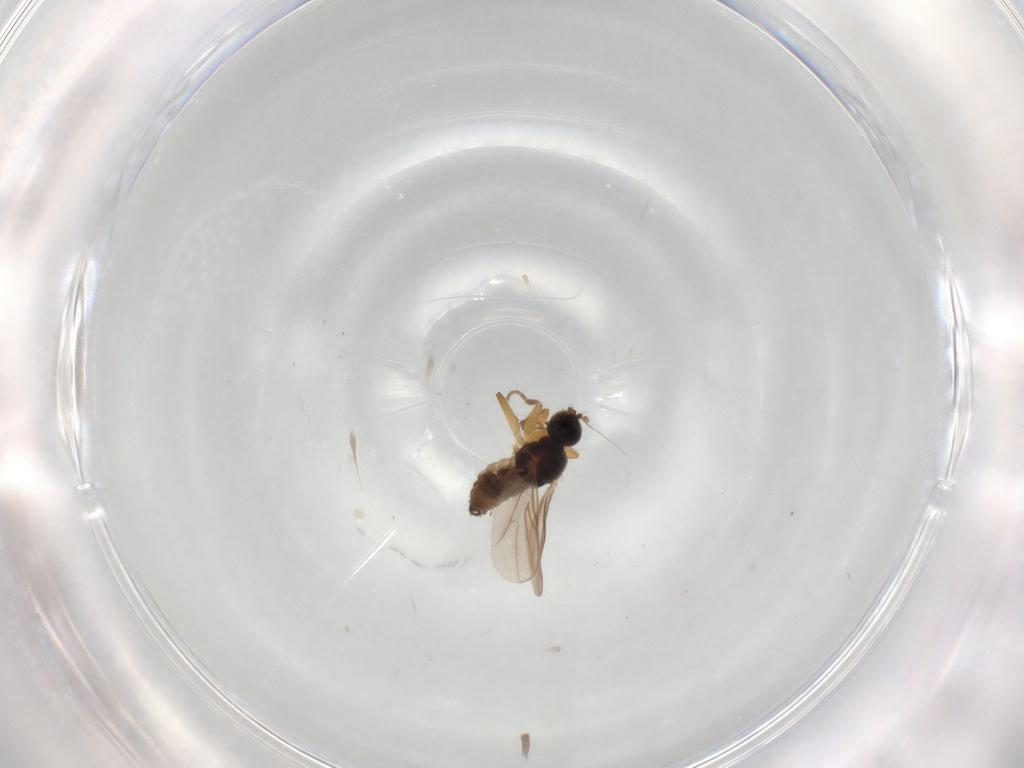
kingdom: Animalia
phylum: Arthropoda
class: Insecta
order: Diptera
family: Hybotidae
